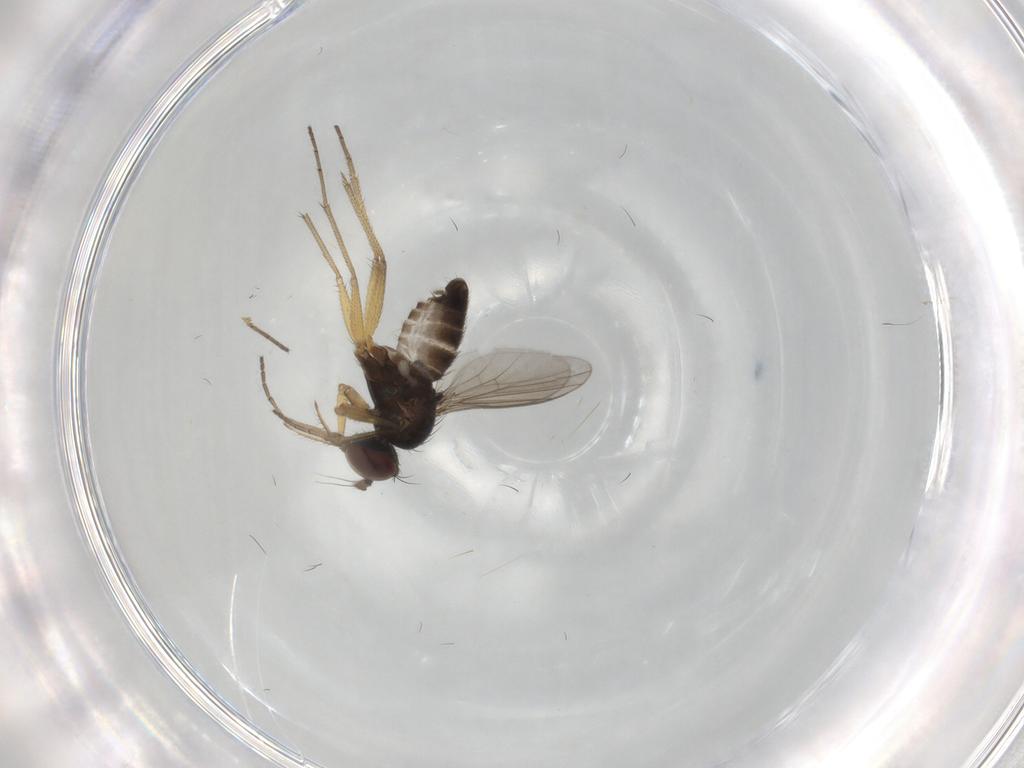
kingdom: Animalia
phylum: Arthropoda
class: Insecta
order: Diptera
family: Dolichopodidae
